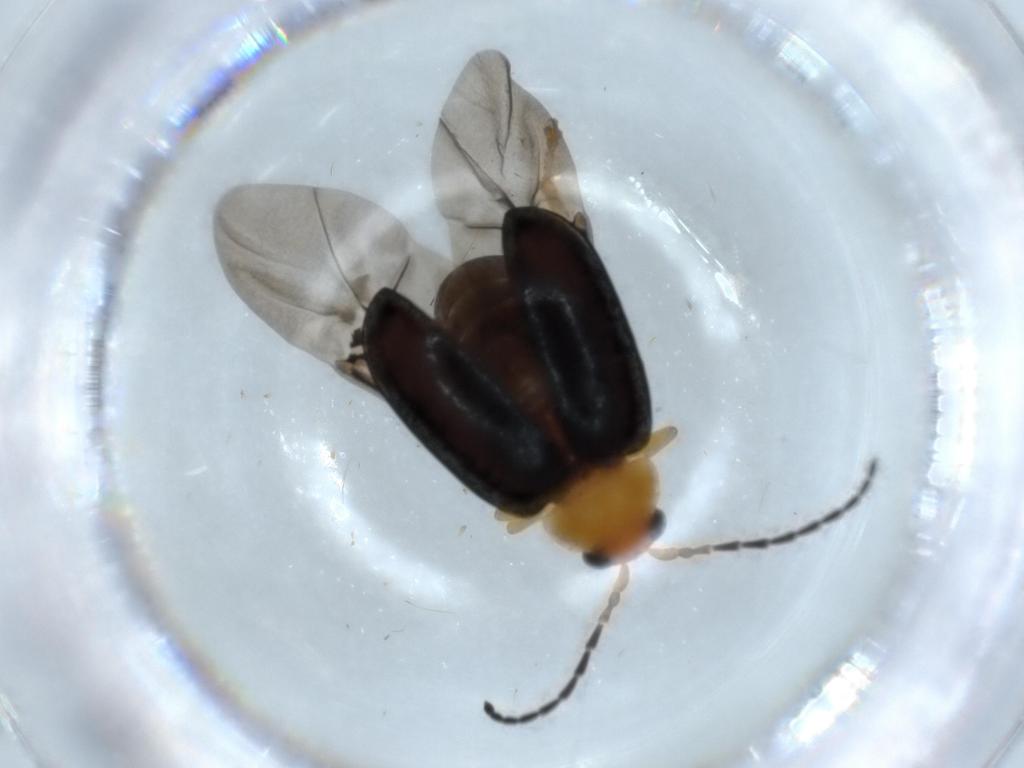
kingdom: Animalia
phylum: Arthropoda
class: Insecta
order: Coleoptera
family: Chrysomelidae
